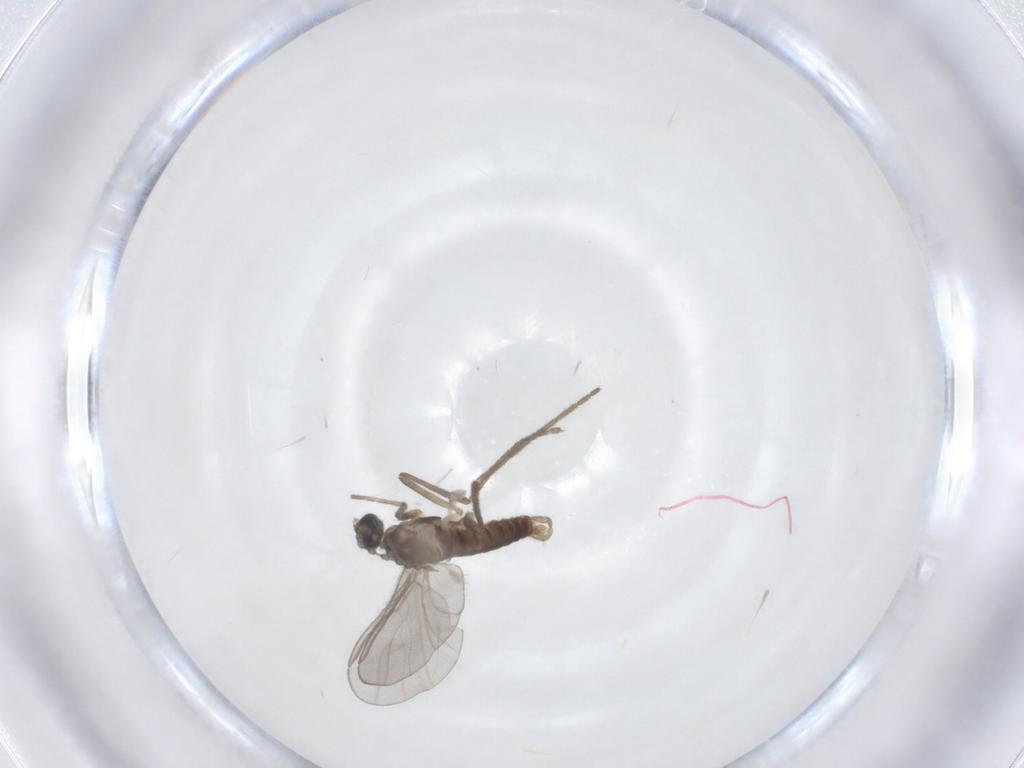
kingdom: Animalia
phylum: Arthropoda
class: Insecta
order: Diptera
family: Cecidomyiidae
